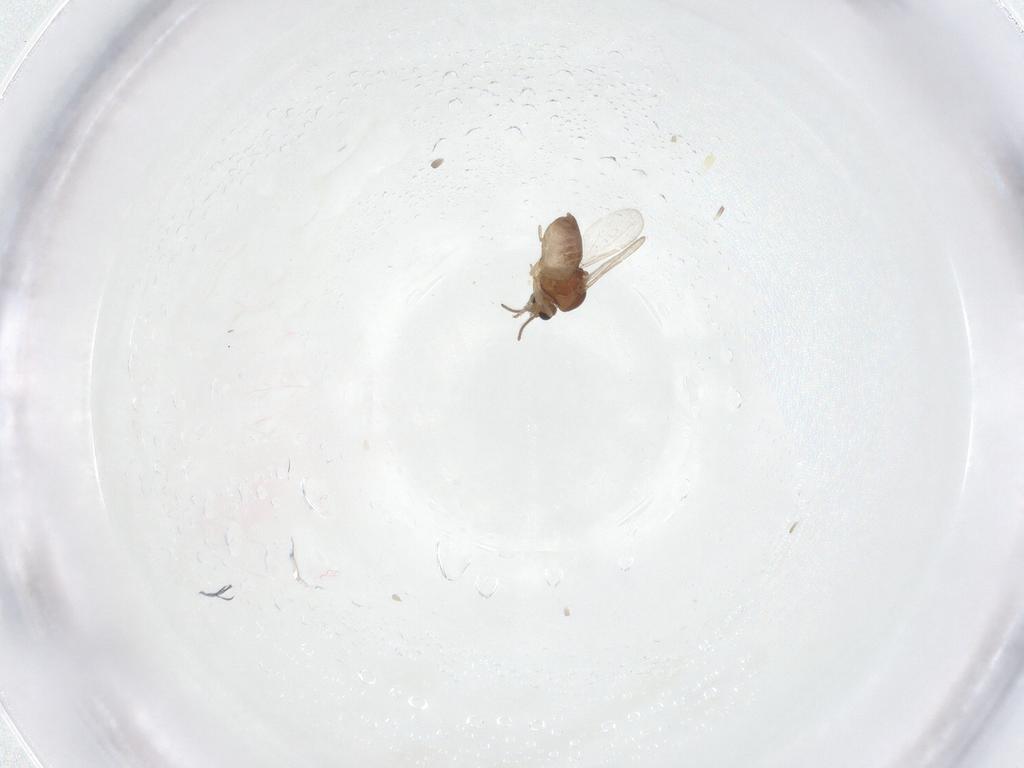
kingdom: Animalia
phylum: Arthropoda
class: Insecta
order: Diptera
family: Ceratopogonidae
